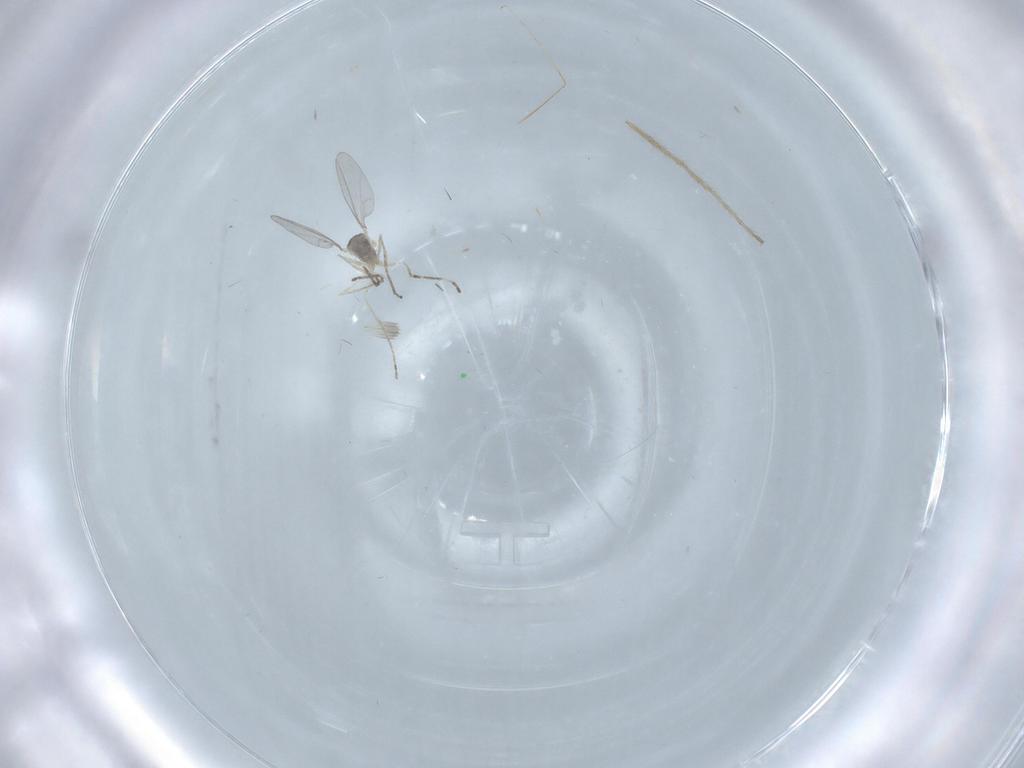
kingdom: Animalia
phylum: Arthropoda
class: Insecta
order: Diptera
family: Cecidomyiidae
